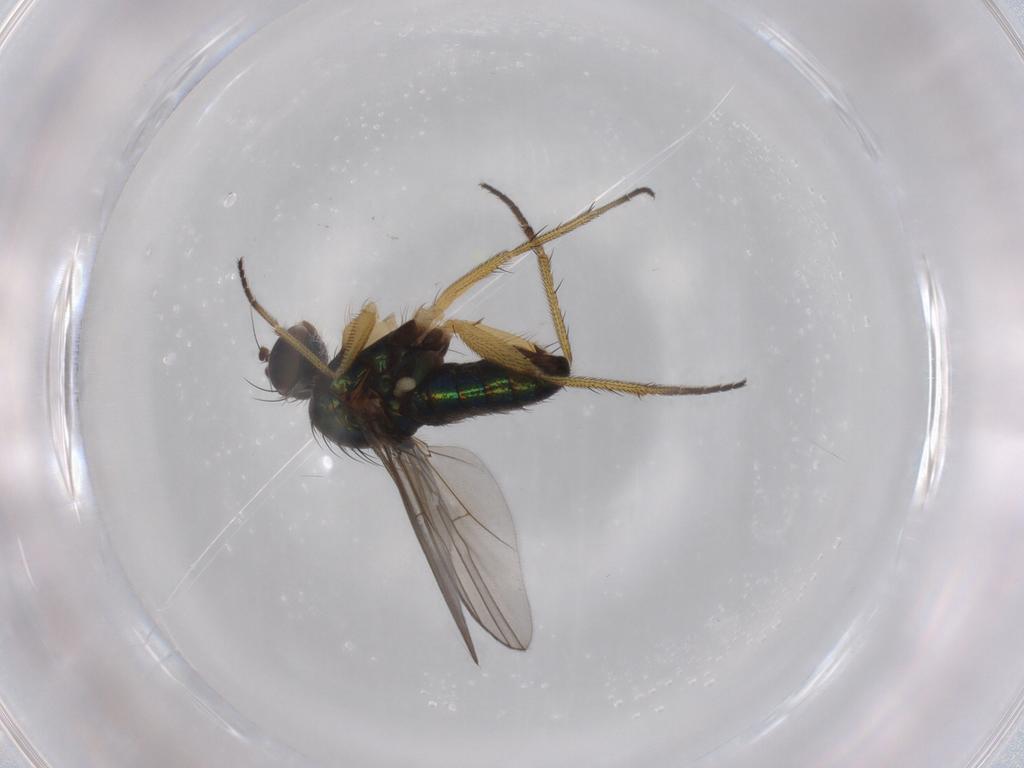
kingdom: Animalia
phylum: Arthropoda
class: Insecta
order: Diptera
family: Dolichopodidae
